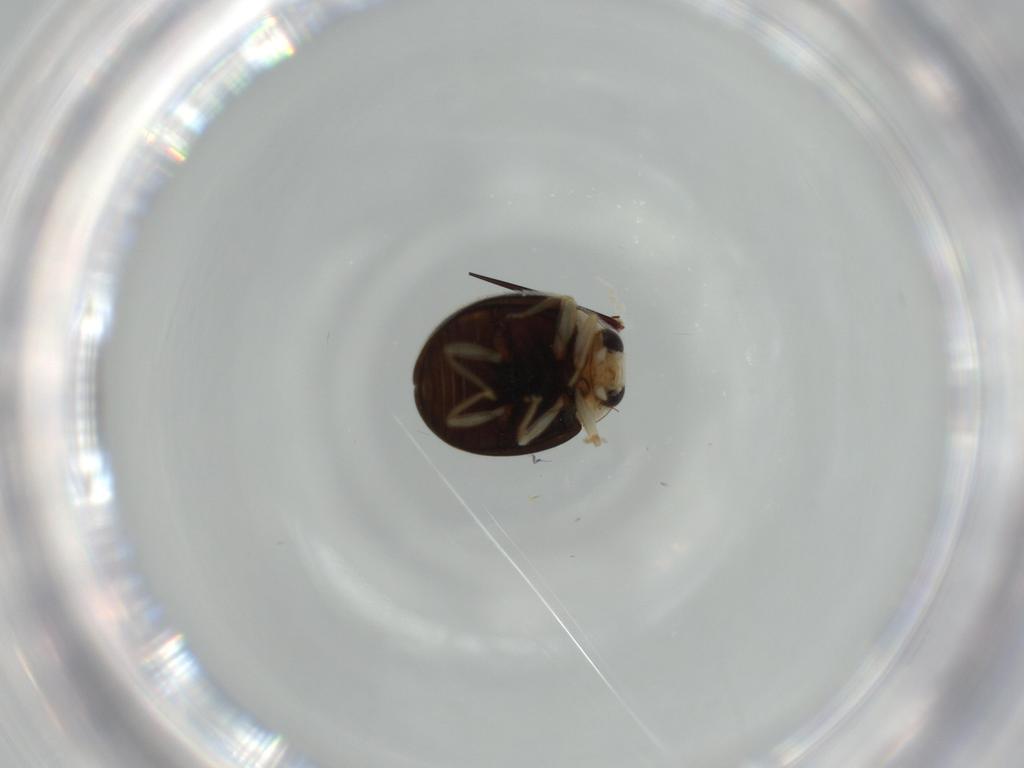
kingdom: Animalia
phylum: Arthropoda
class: Insecta
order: Coleoptera
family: Coccinellidae
